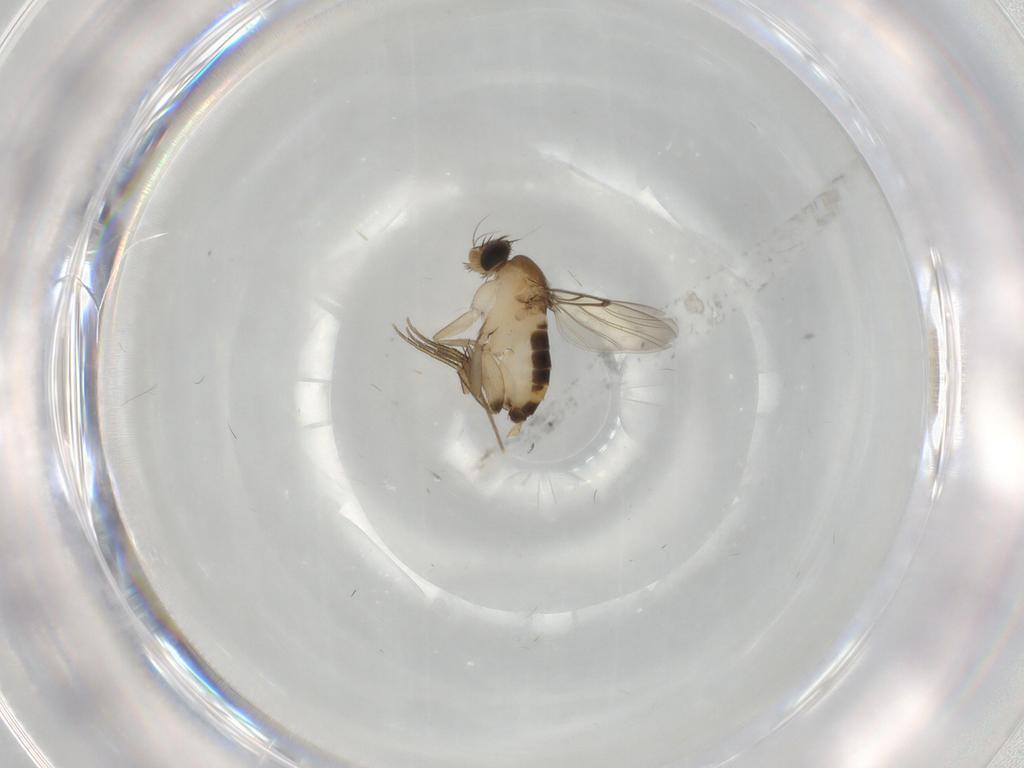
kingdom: Animalia
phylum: Arthropoda
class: Insecta
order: Diptera
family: Phoridae
